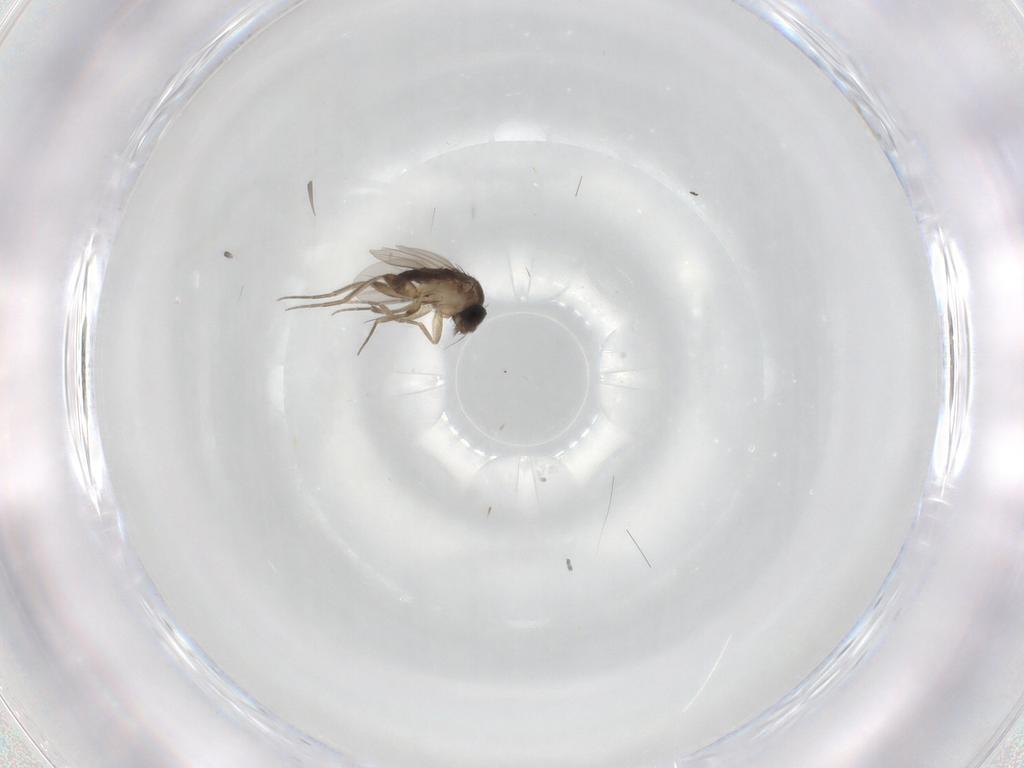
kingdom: Animalia
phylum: Arthropoda
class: Insecta
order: Diptera
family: Phoridae
